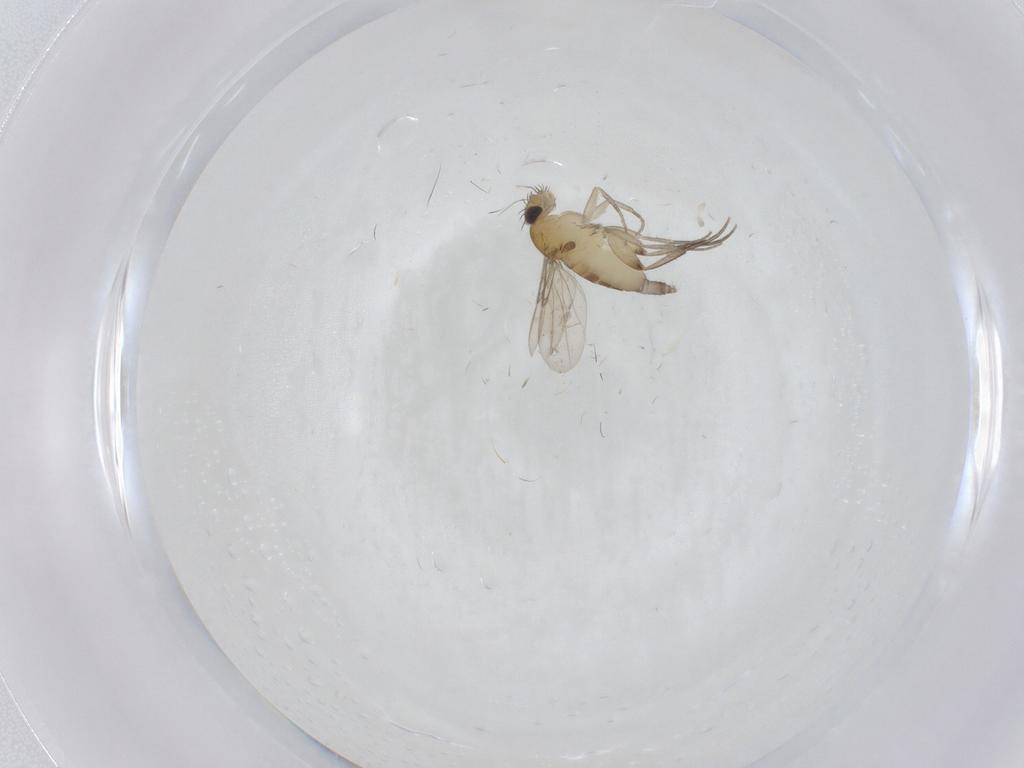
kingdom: Animalia
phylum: Arthropoda
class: Insecta
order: Diptera
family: Phoridae
